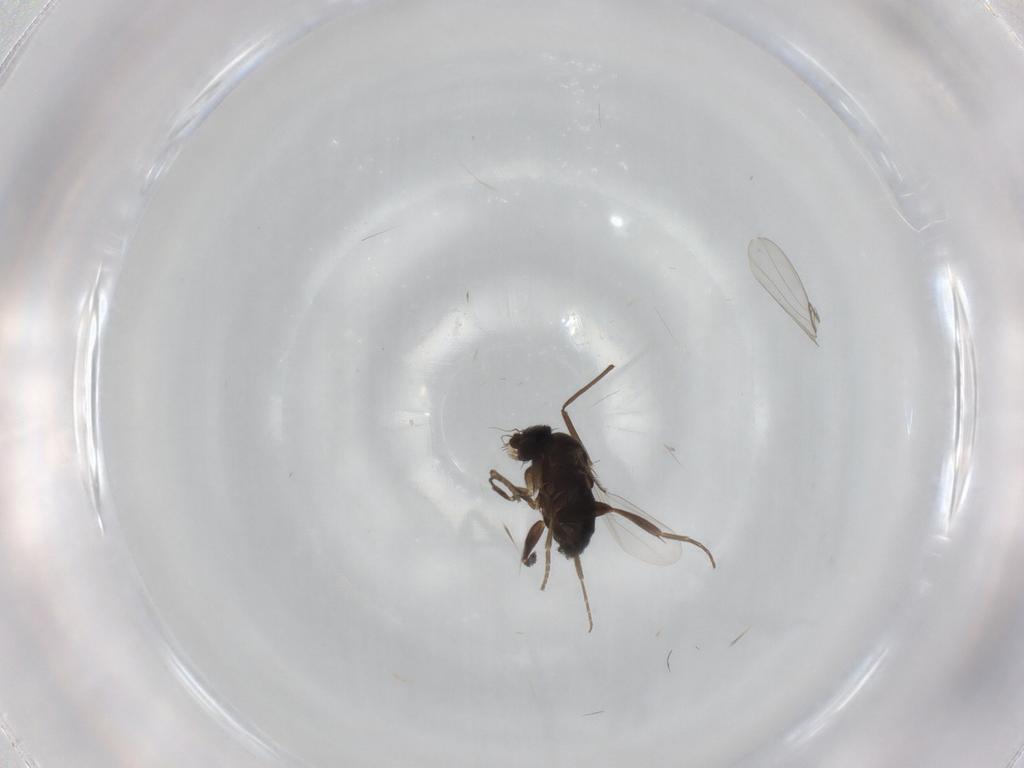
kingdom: Animalia
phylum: Arthropoda
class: Insecta
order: Diptera
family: Phoridae
